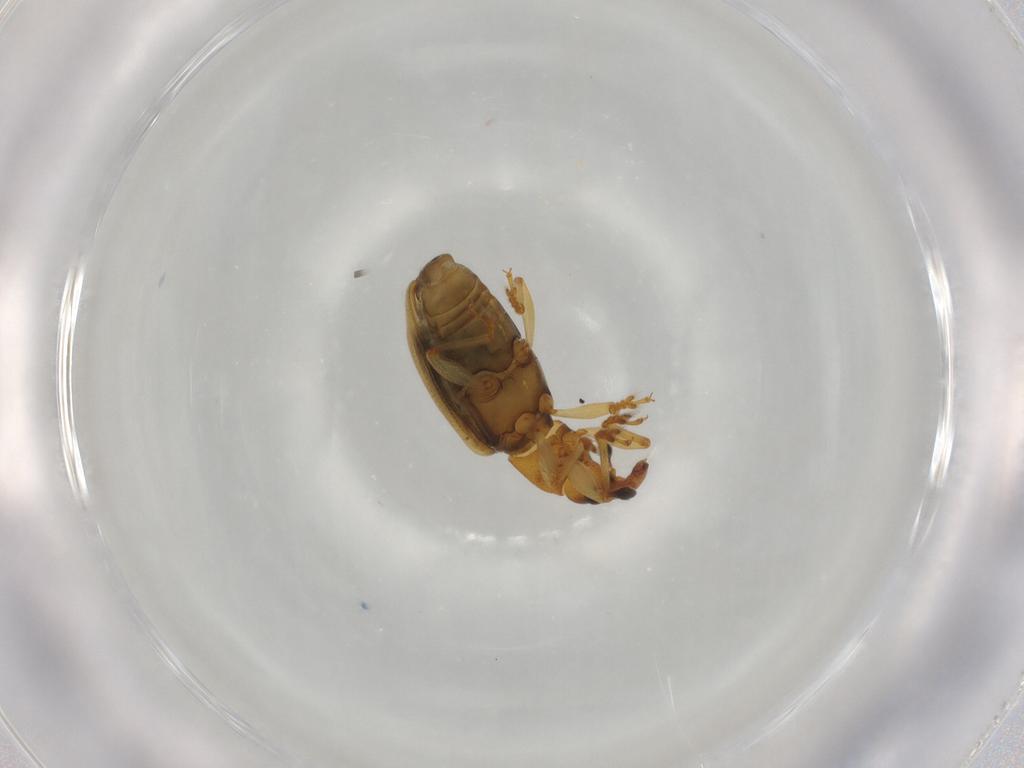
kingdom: Animalia
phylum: Arthropoda
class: Insecta
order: Coleoptera
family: Curculionidae
